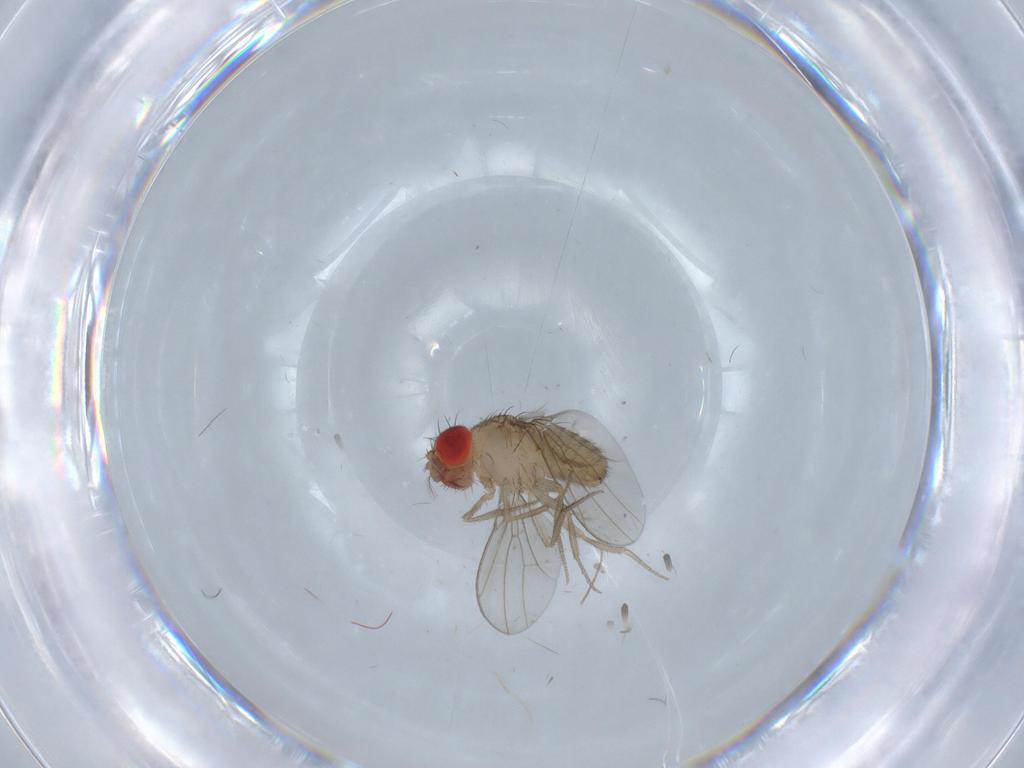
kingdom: Animalia
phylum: Arthropoda
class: Insecta
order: Diptera
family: Drosophilidae
